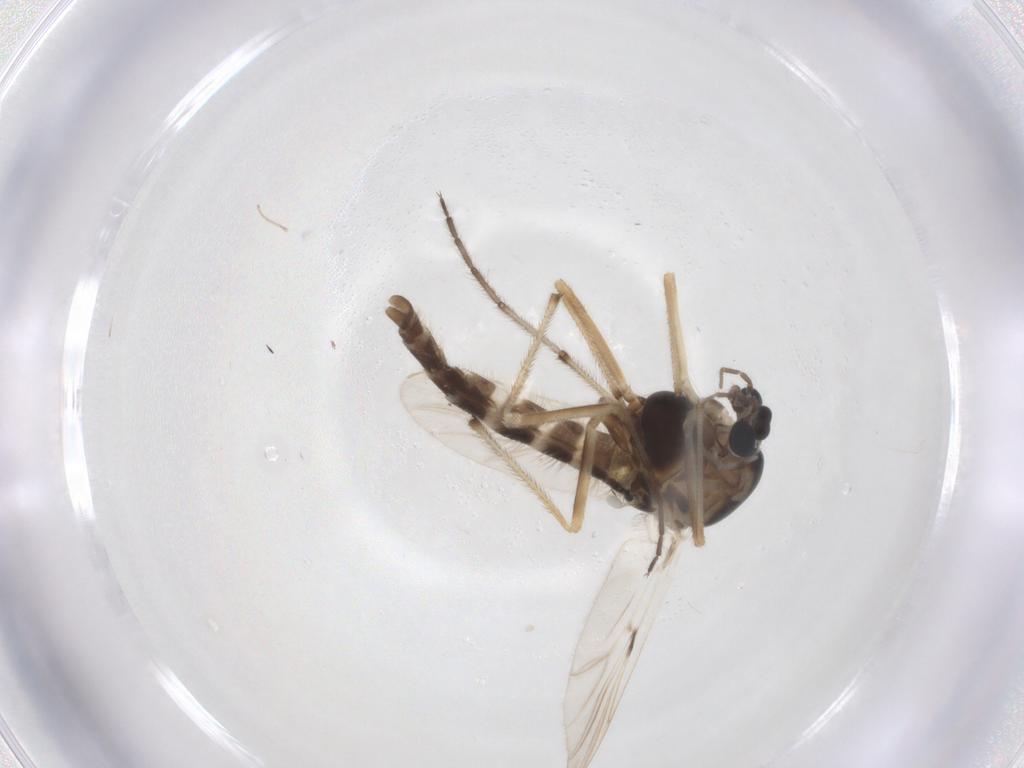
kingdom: Animalia
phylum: Arthropoda
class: Insecta
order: Diptera
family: Chironomidae
